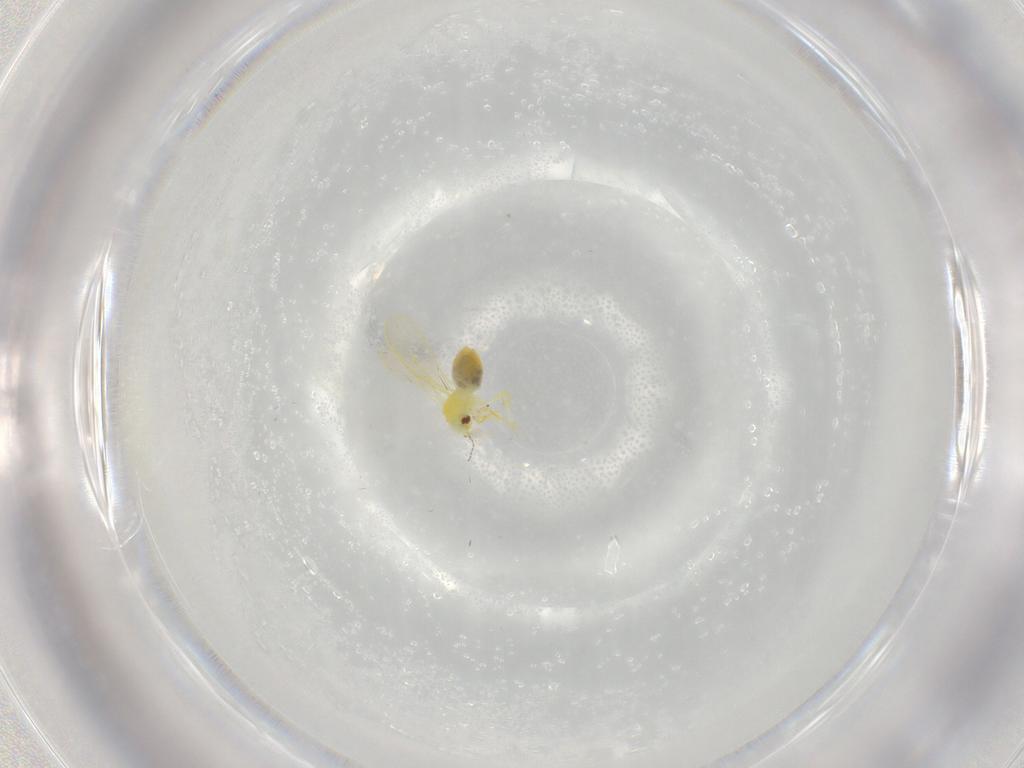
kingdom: Animalia
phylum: Arthropoda
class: Insecta
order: Hemiptera
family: Aleyrodidae
